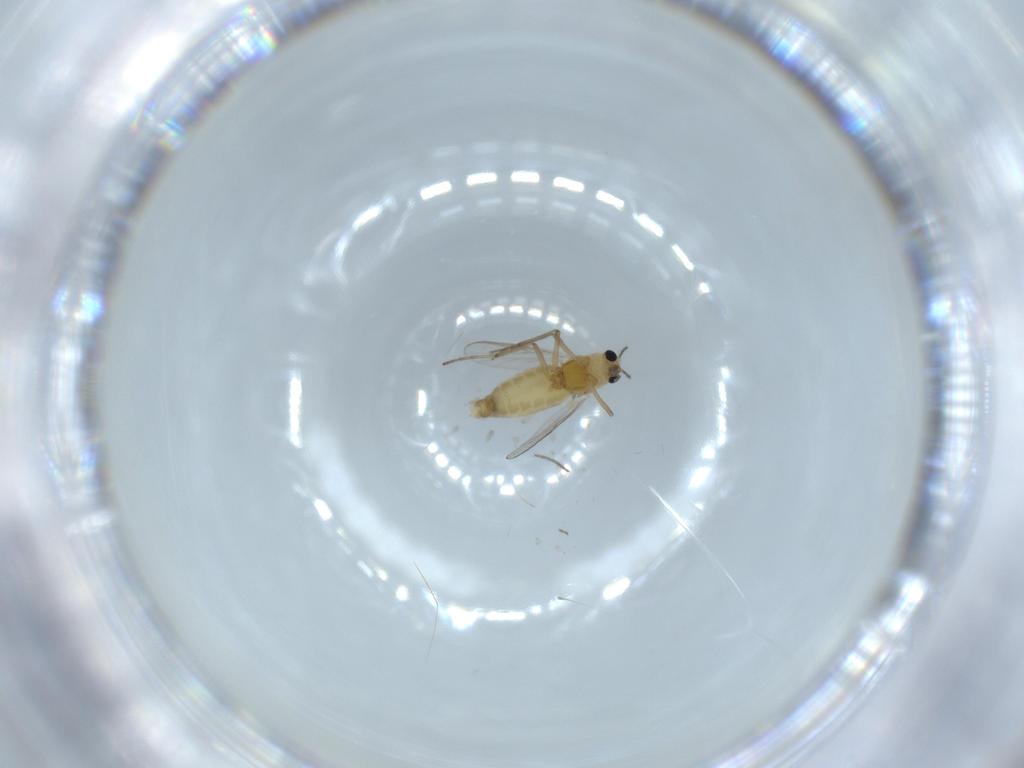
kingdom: Animalia
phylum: Arthropoda
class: Insecta
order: Diptera
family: Chironomidae
